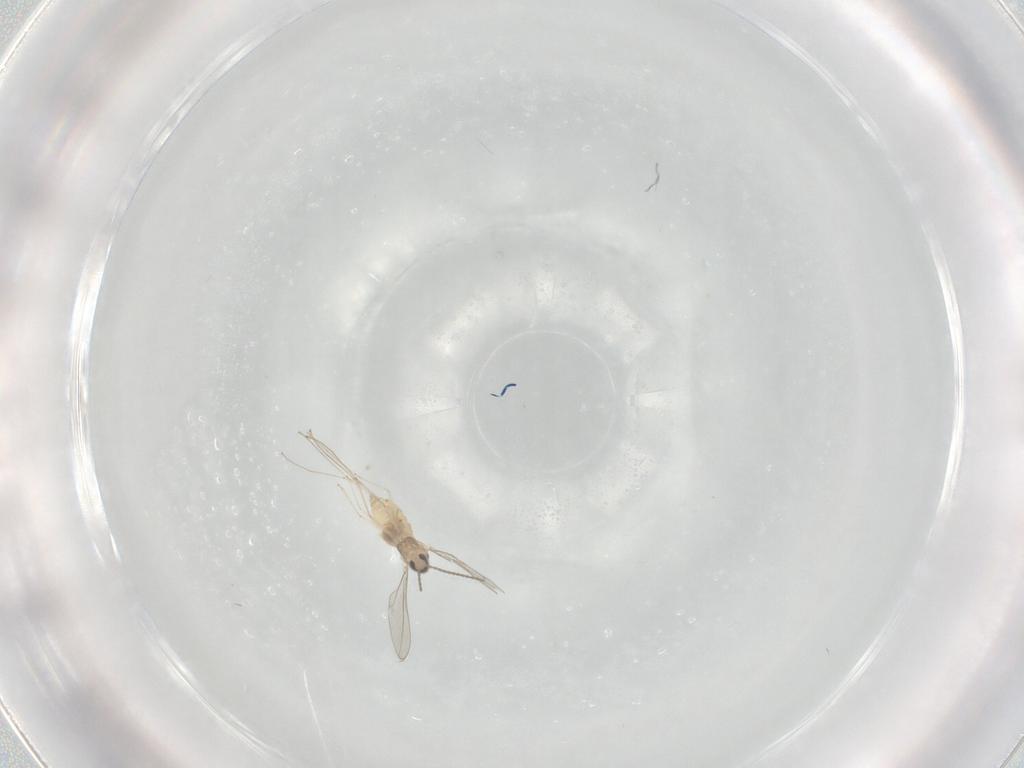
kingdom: Animalia
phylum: Arthropoda
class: Insecta
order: Diptera
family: Cecidomyiidae
